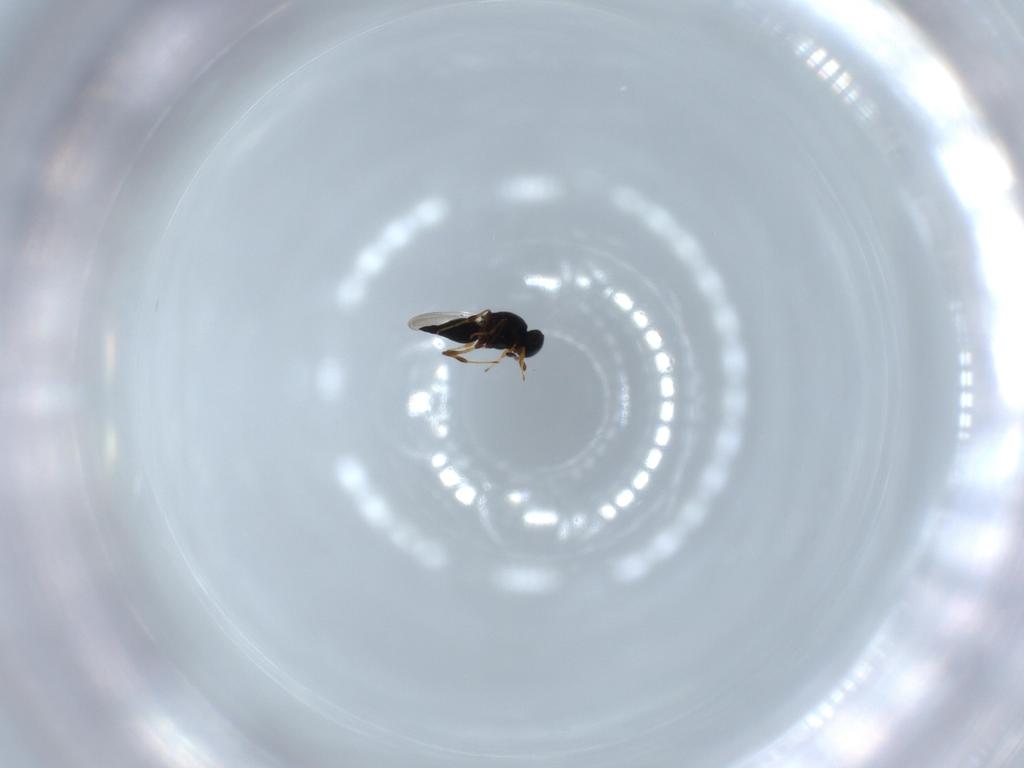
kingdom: Animalia
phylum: Arthropoda
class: Insecta
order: Hymenoptera
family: Platygastridae
